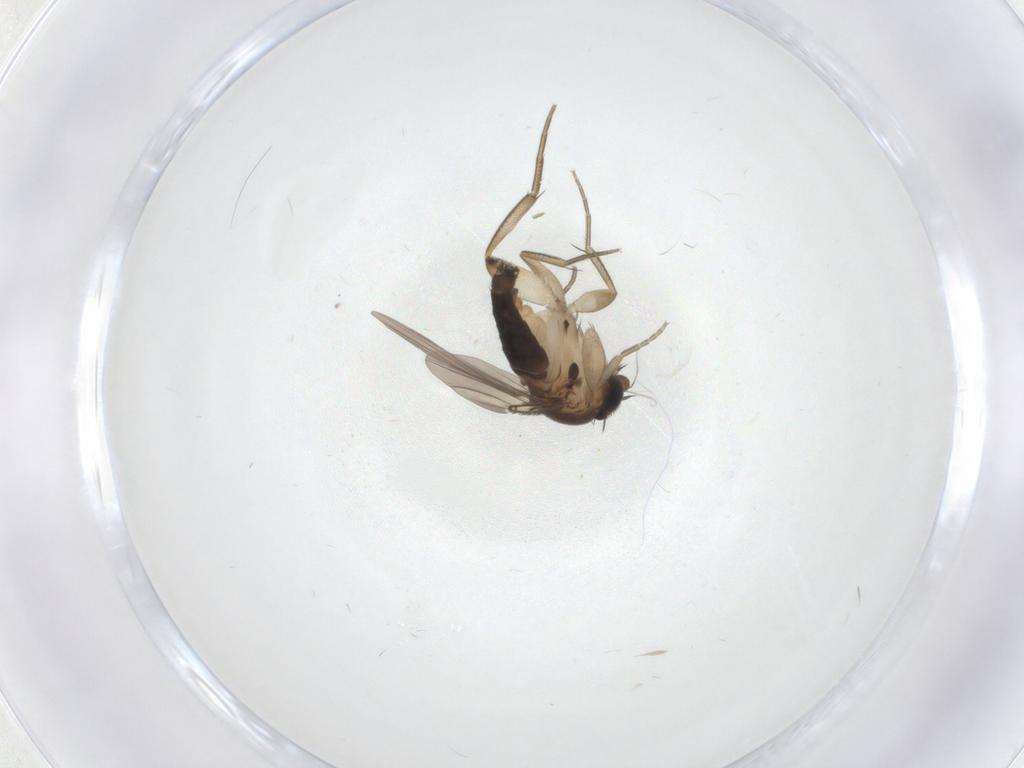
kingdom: Animalia
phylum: Arthropoda
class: Insecta
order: Diptera
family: Phoridae
